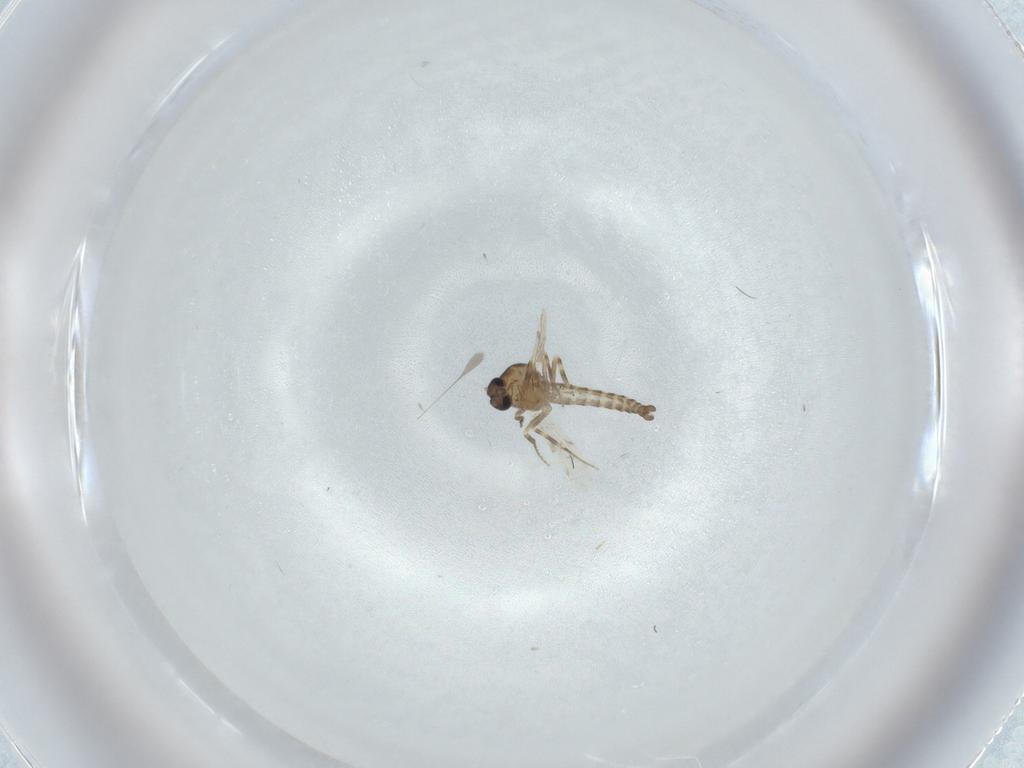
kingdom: Animalia
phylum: Arthropoda
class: Insecta
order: Diptera
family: Ceratopogonidae
